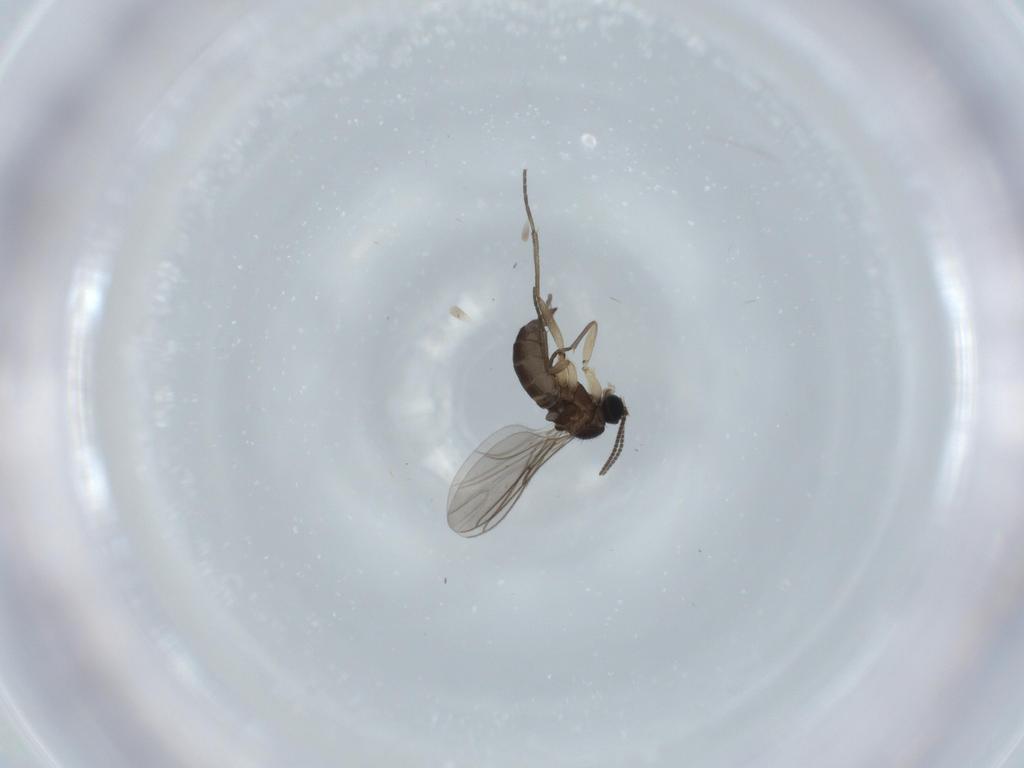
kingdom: Animalia
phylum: Arthropoda
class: Insecta
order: Diptera
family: Sciaridae
